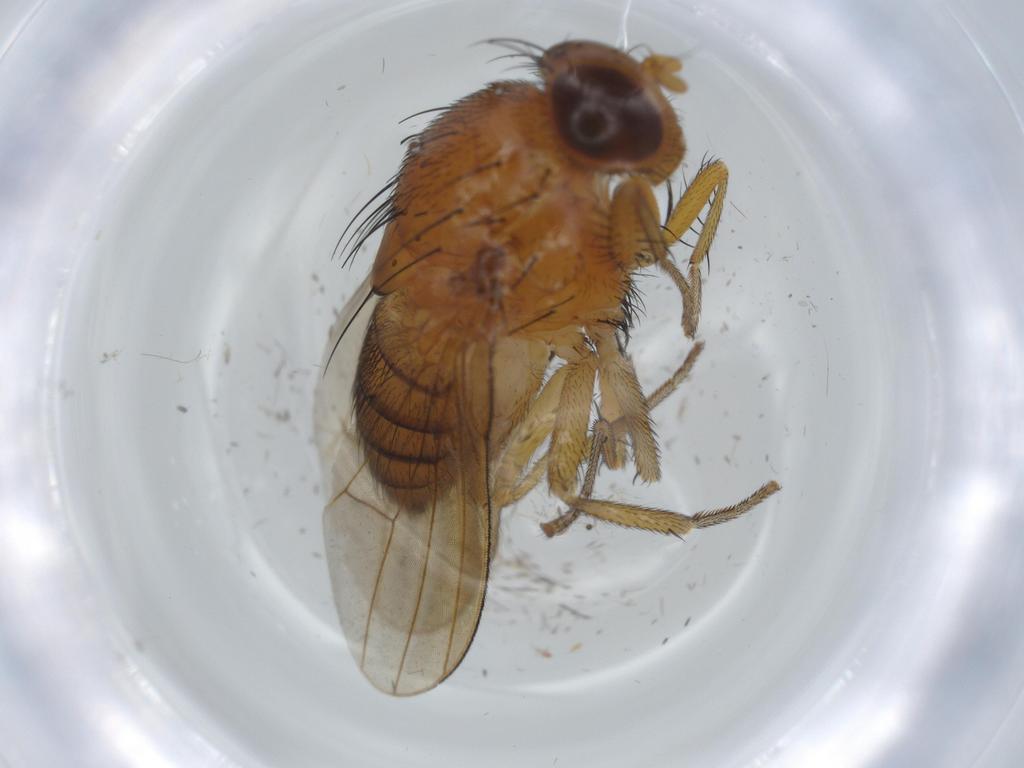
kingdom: Animalia
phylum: Arthropoda
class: Insecta
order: Diptera
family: Sciaridae
